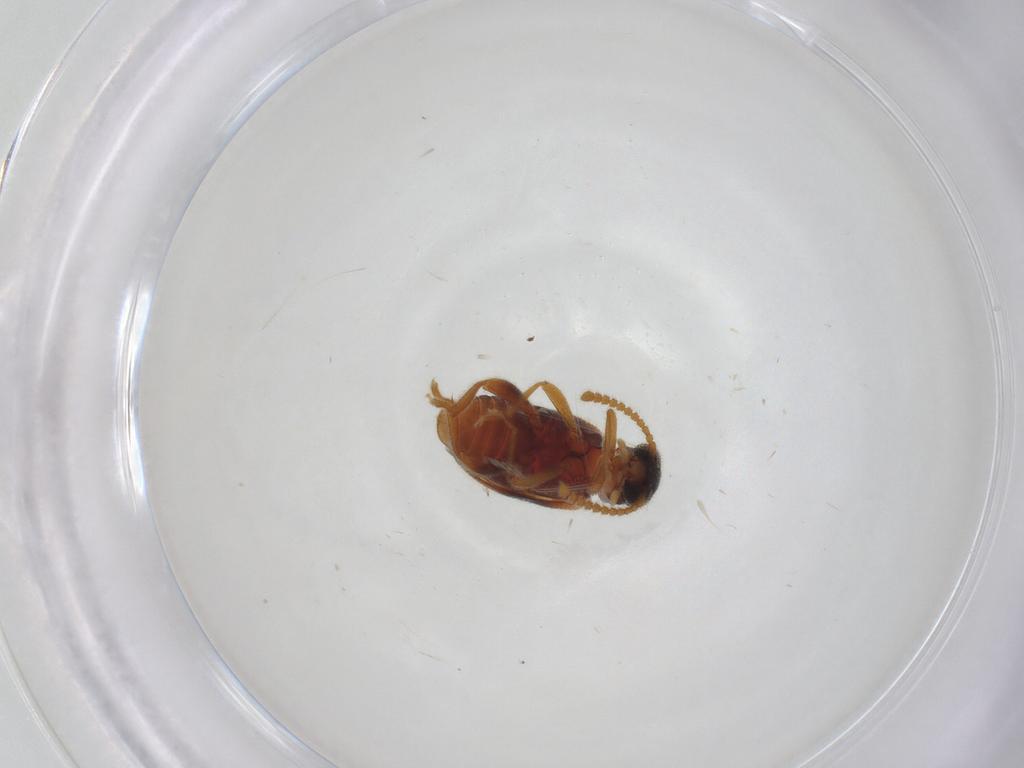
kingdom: Animalia
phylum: Arthropoda
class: Insecta
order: Coleoptera
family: Aderidae
